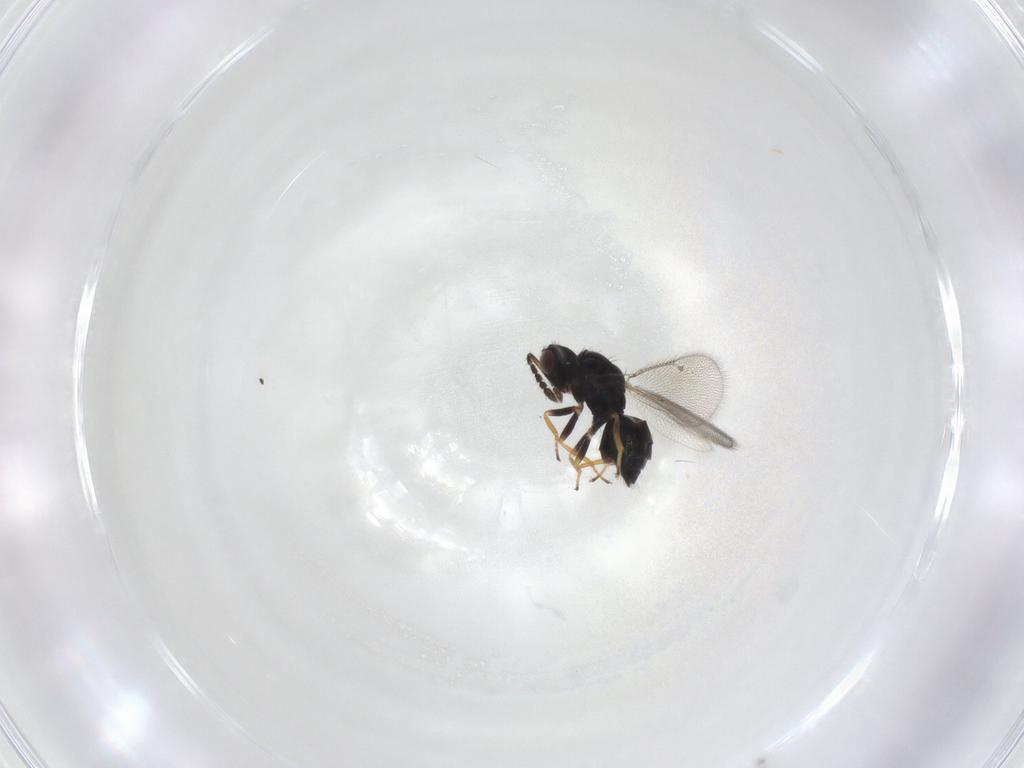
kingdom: Animalia
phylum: Arthropoda
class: Insecta
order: Hymenoptera
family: Eulophidae
